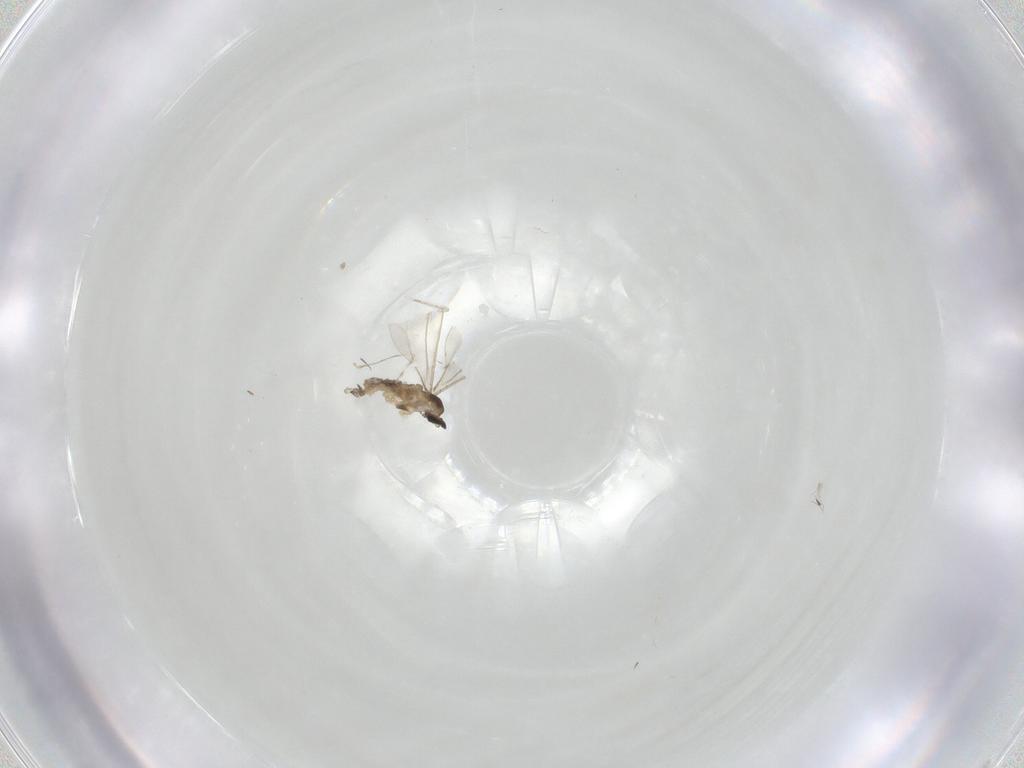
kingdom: Animalia
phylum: Arthropoda
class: Insecta
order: Diptera
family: Cecidomyiidae
